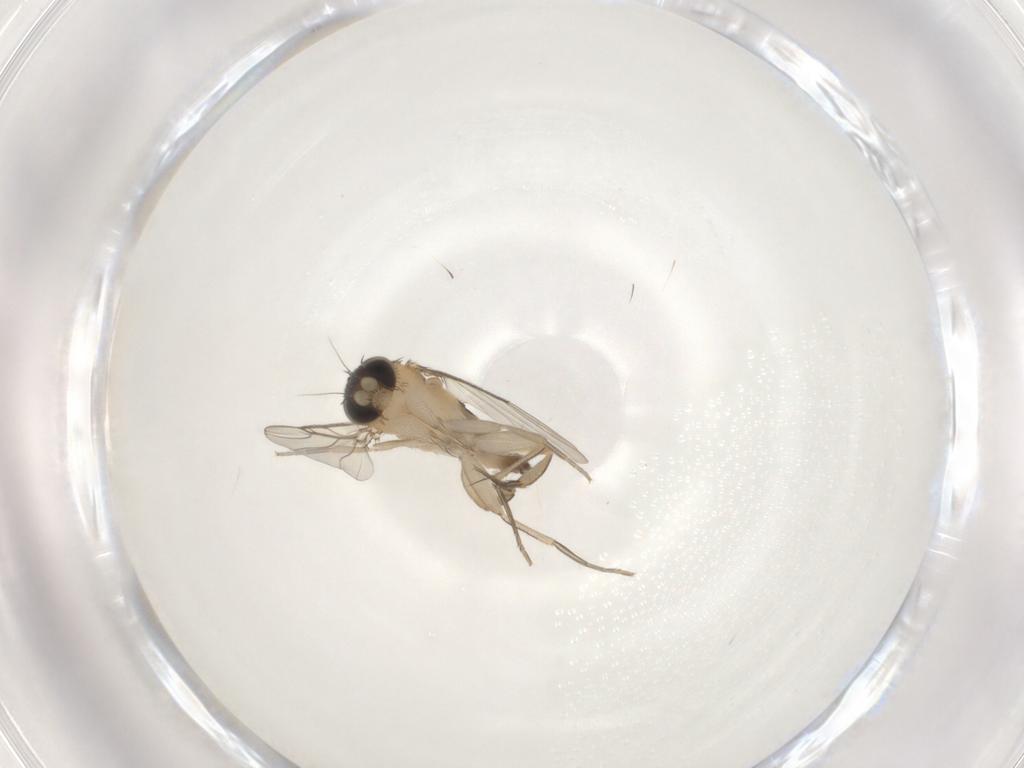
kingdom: Animalia
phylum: Arthropoda
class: Insecta
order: Diptera
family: Phoridae
